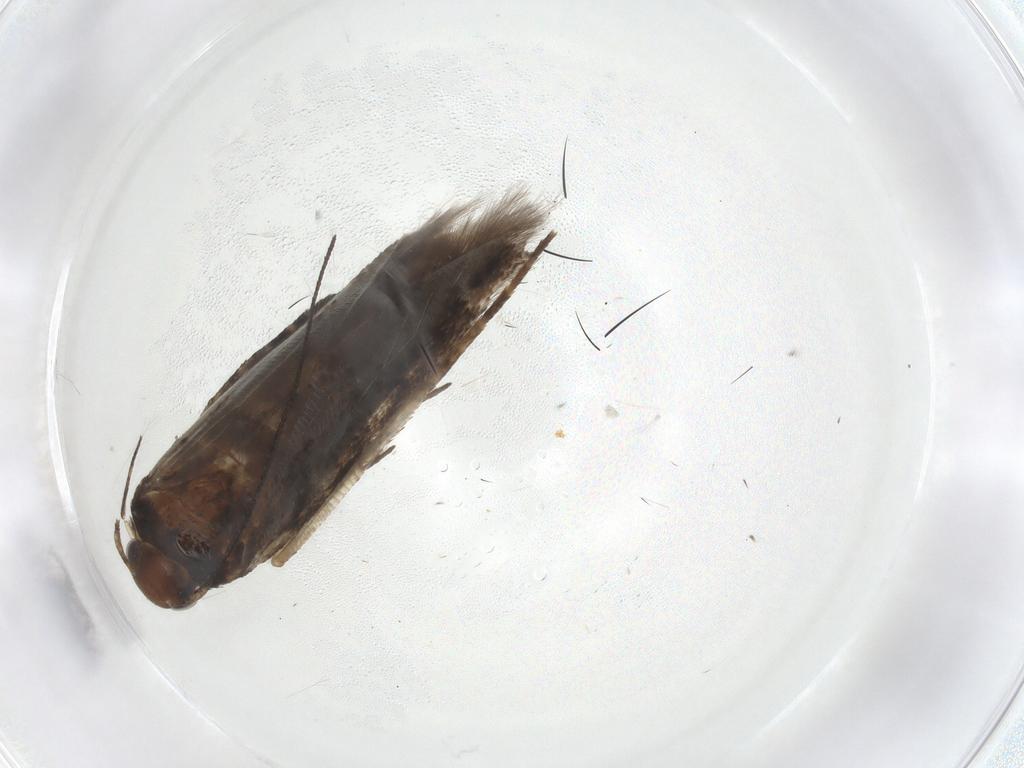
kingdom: Animalia
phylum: Arthropoda
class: Insecta
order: Lepidoptera
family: Gelechiidae
